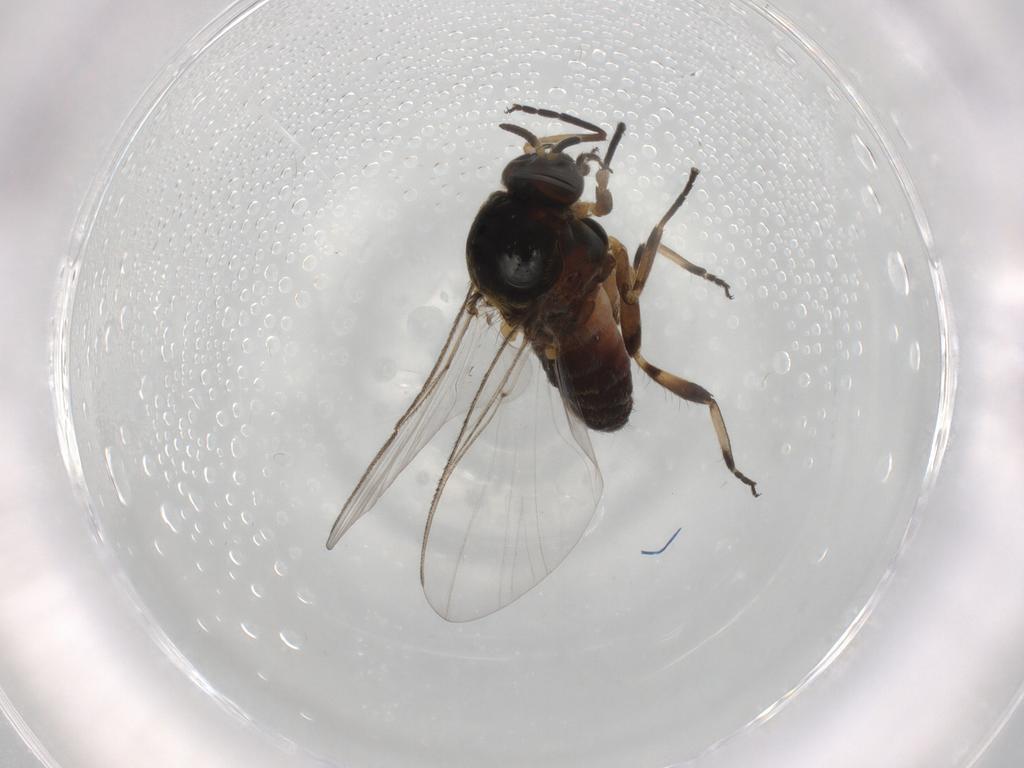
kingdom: Animalia
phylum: Arthropoda
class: Insecta
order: Diptera
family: Simuliidae
